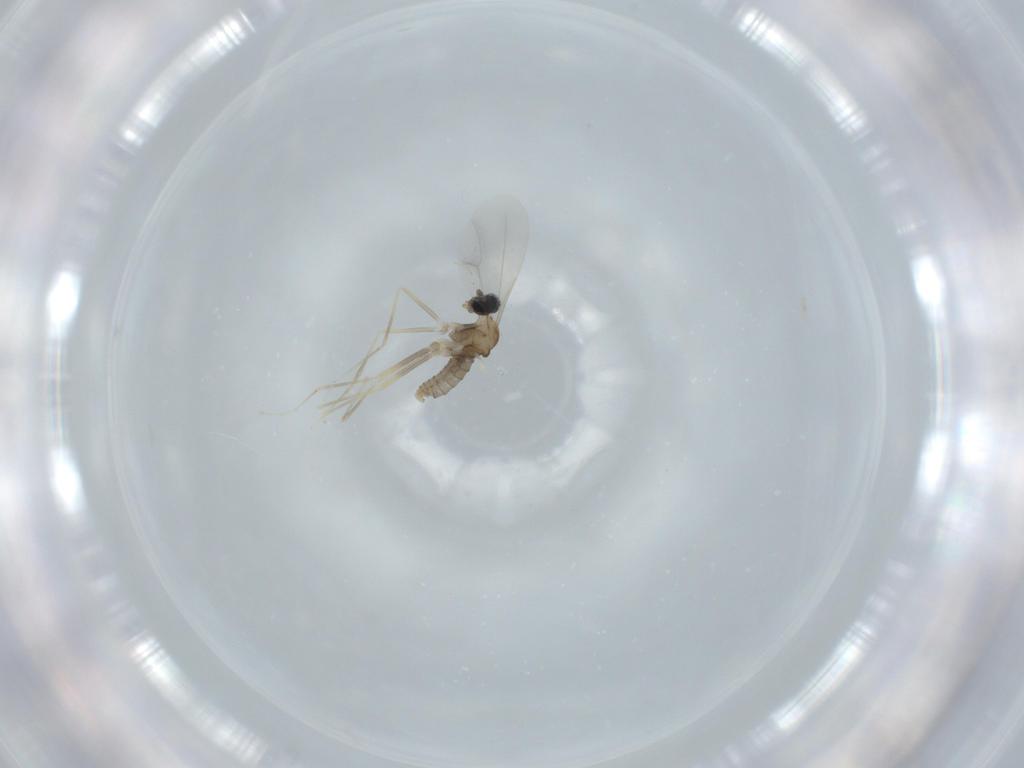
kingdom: Animalia
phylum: Arthropoda
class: Insecta
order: Diptera
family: Cecidomyiidae
